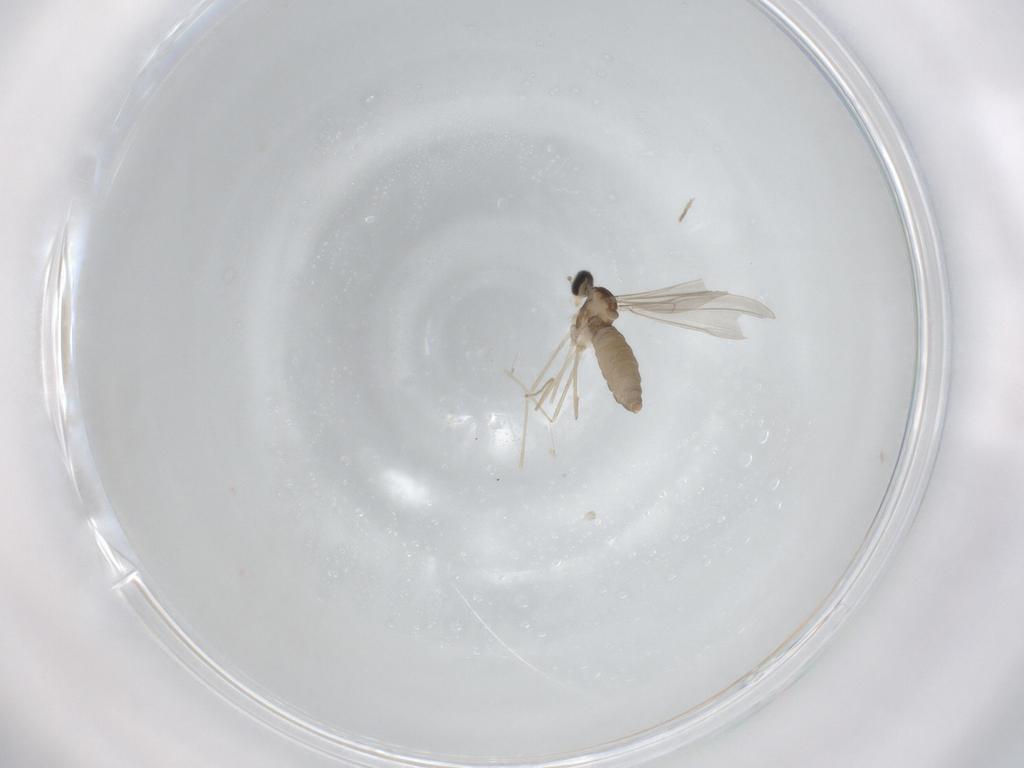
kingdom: Animalia
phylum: Arthropoda
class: Insecta
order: Diptera
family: Cecidomyiidae
